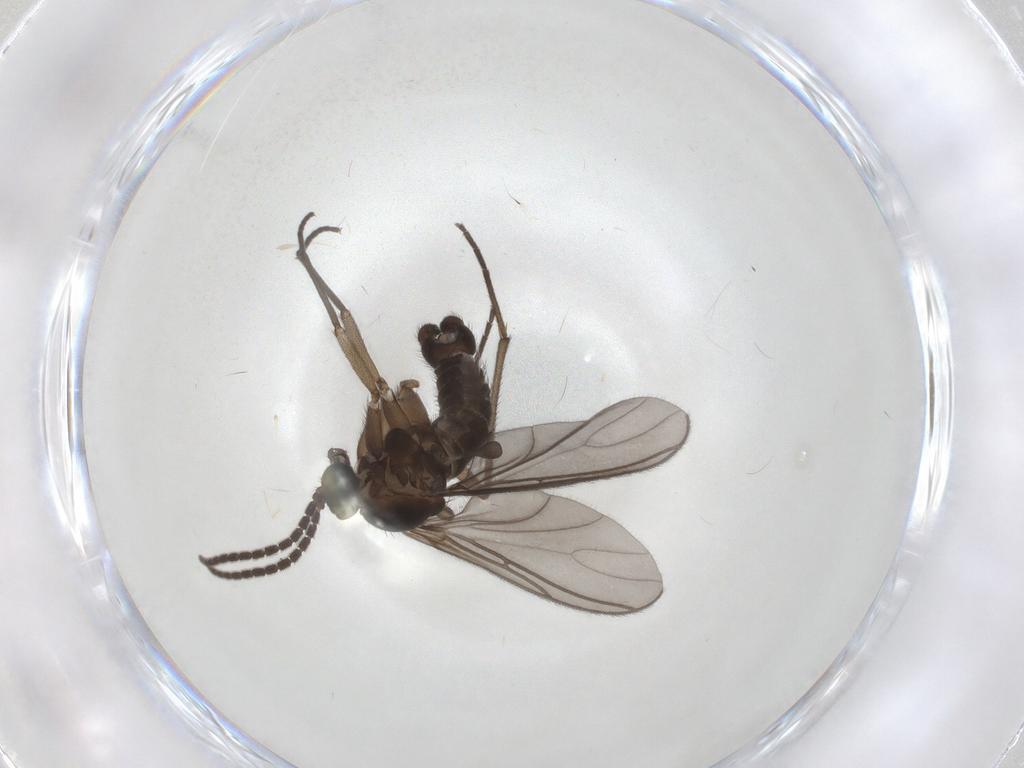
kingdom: Animalia
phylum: Arthropoda
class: Insecta
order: Diptera
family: Sciaridae
